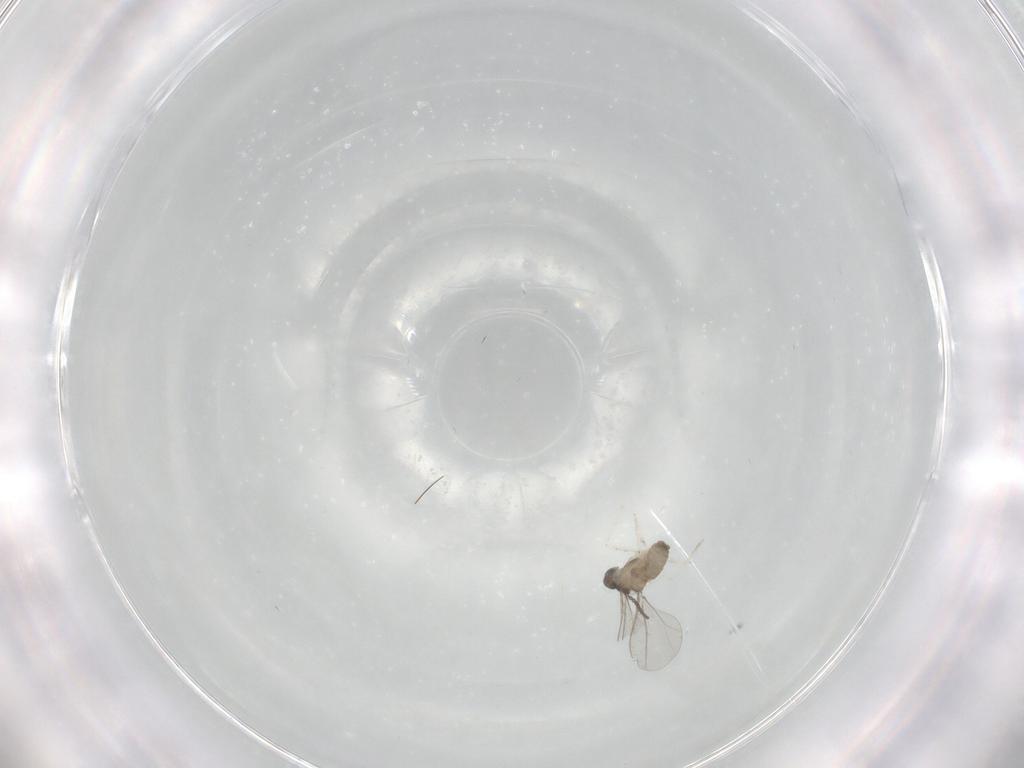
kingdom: Animalia
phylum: Arthropoda
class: Insecta
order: Diptera
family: Cecidomyiidae
